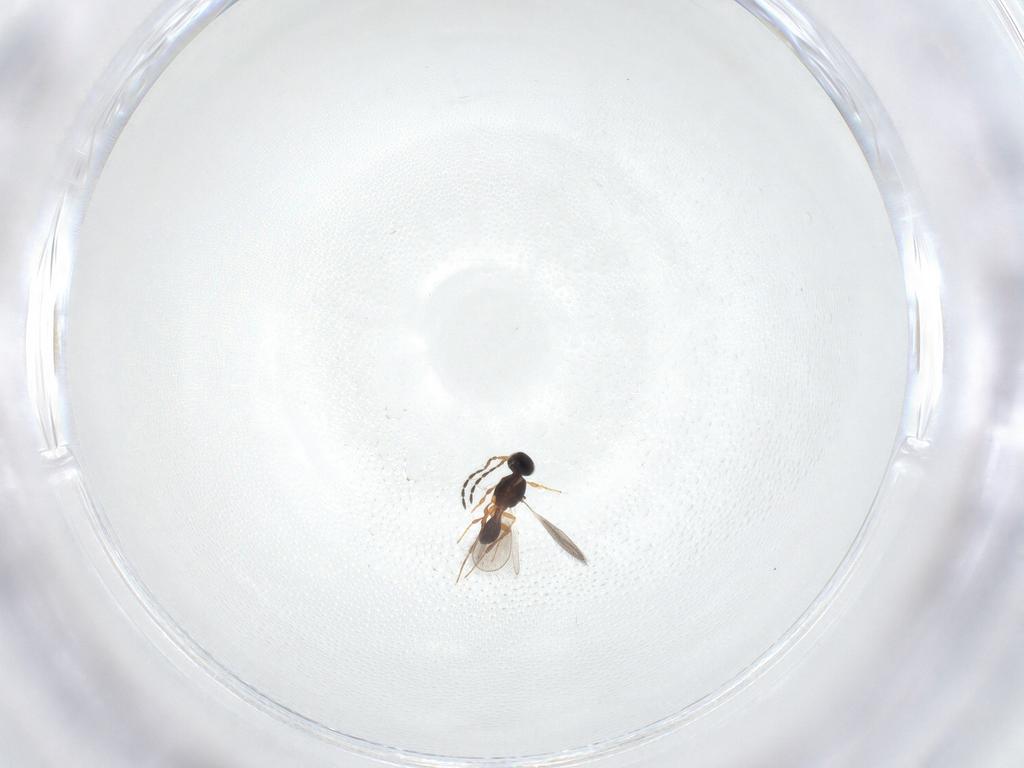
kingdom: Animalia
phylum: Arthropoda
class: Insecta
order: Hymenoptera
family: Platygastridae
